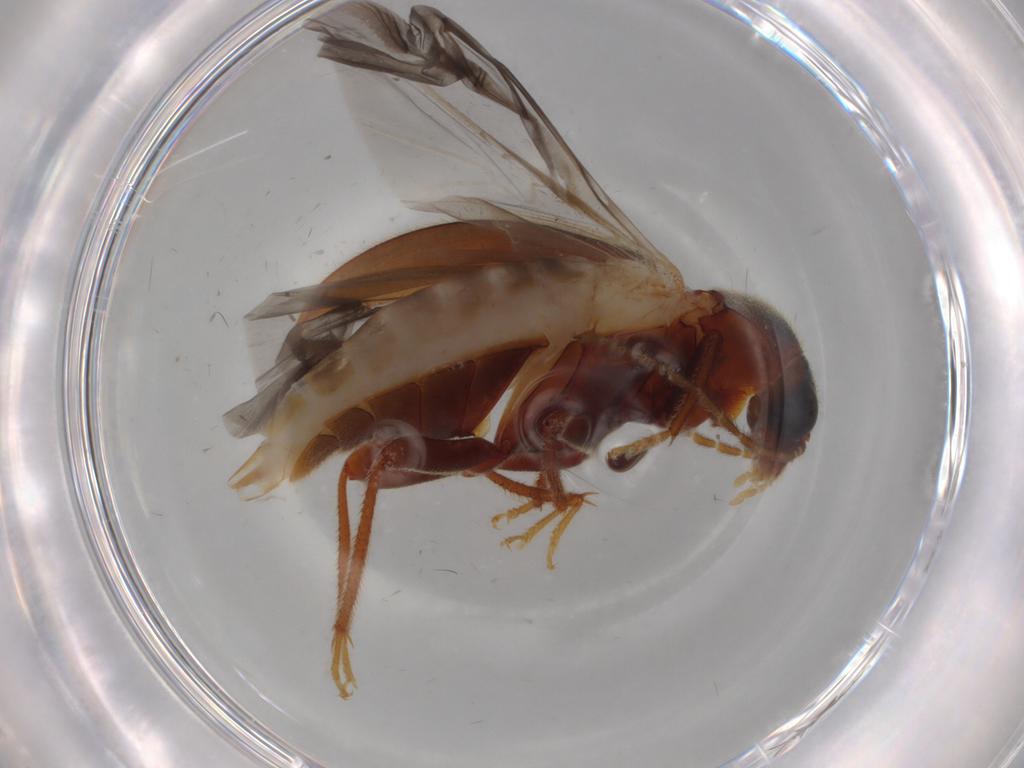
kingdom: Animalia
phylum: Arthropoda
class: Insecta
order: Coleoptera
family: Ptilodactylidae
